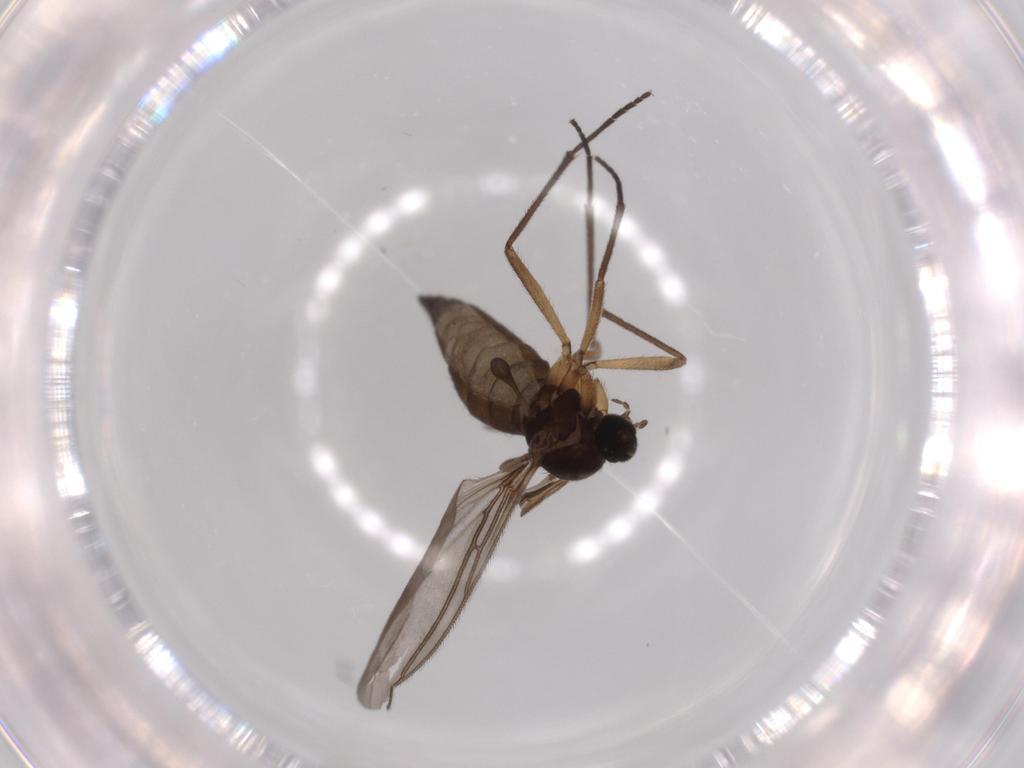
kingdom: Animalia
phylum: Arthropoda
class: Insecta
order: Diptera
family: Sciaridae
